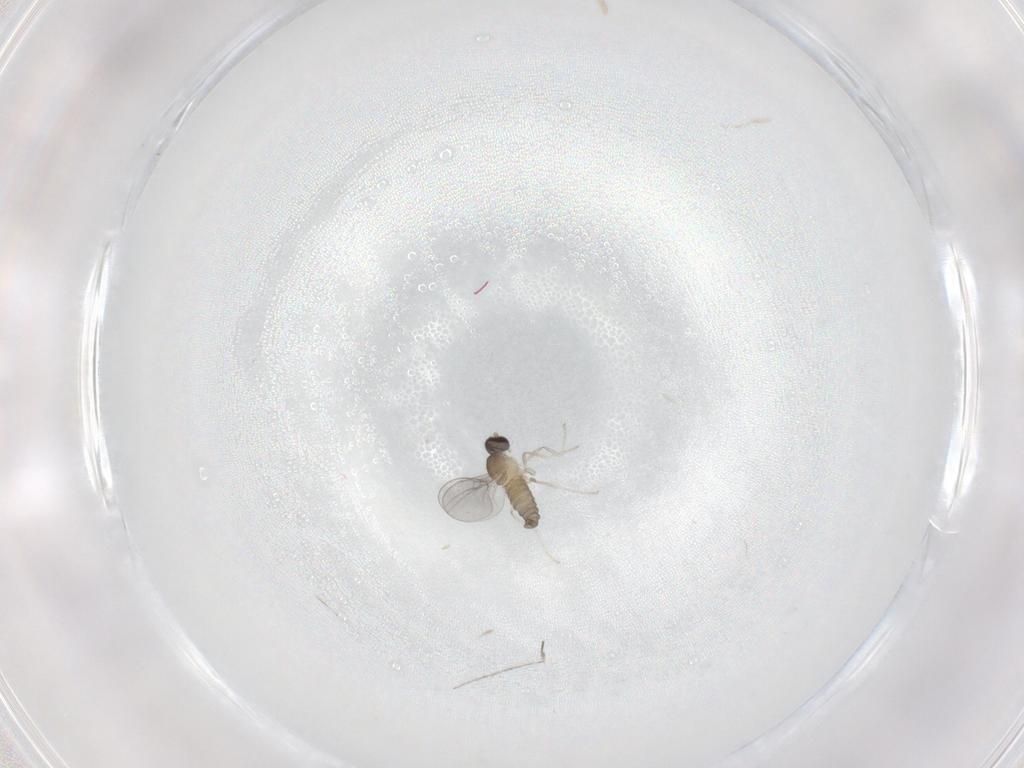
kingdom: Animalia
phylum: Arthropoda
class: Insecta
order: Diptera
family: Cecidomyiidae
